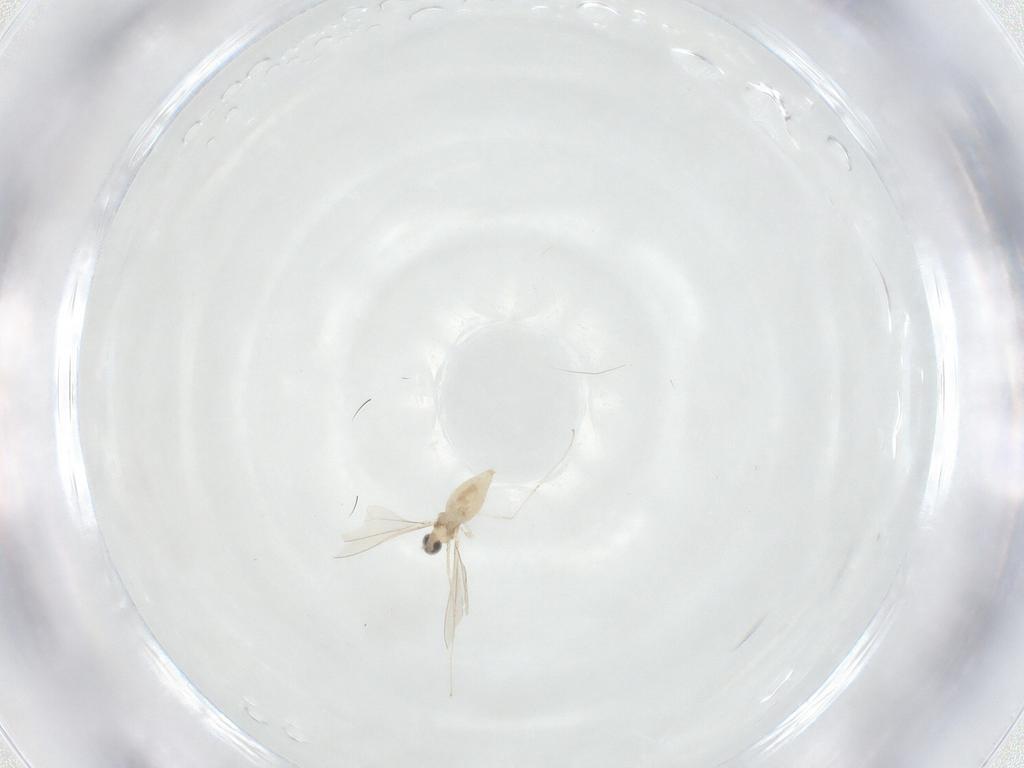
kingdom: Animalia
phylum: Arthropoda
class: Insecta
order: Diptera
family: Cecidomyiidae
